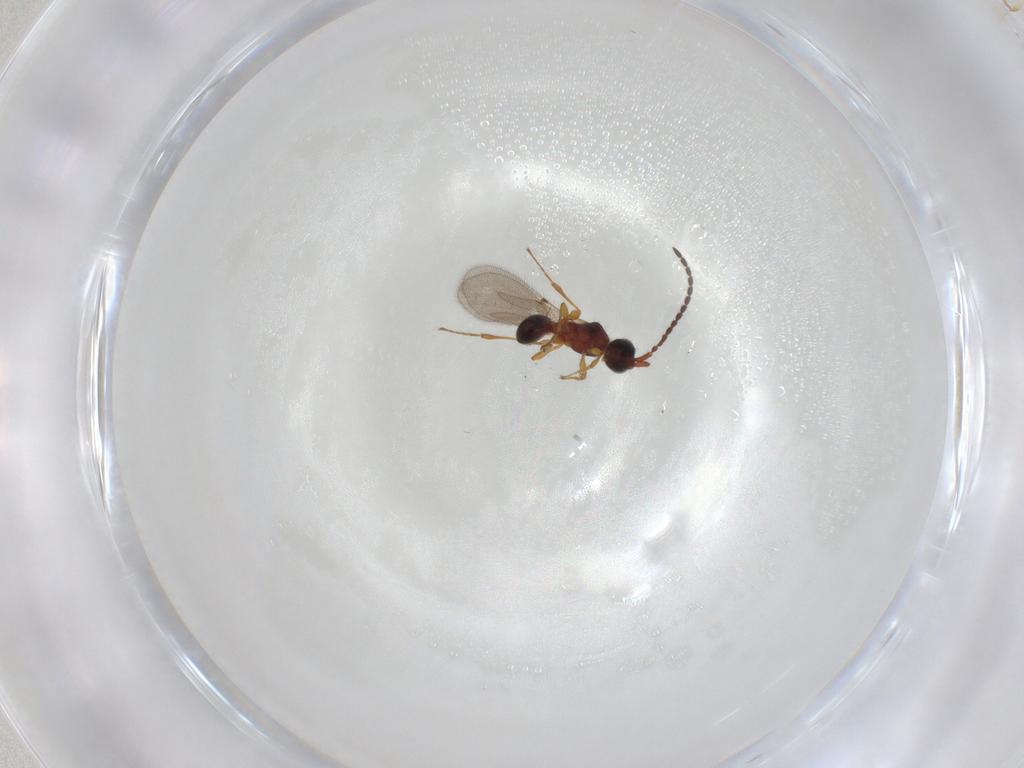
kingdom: Animalia
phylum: Arthropoda
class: Insecta
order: Hymenoptera
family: Diapriidae
